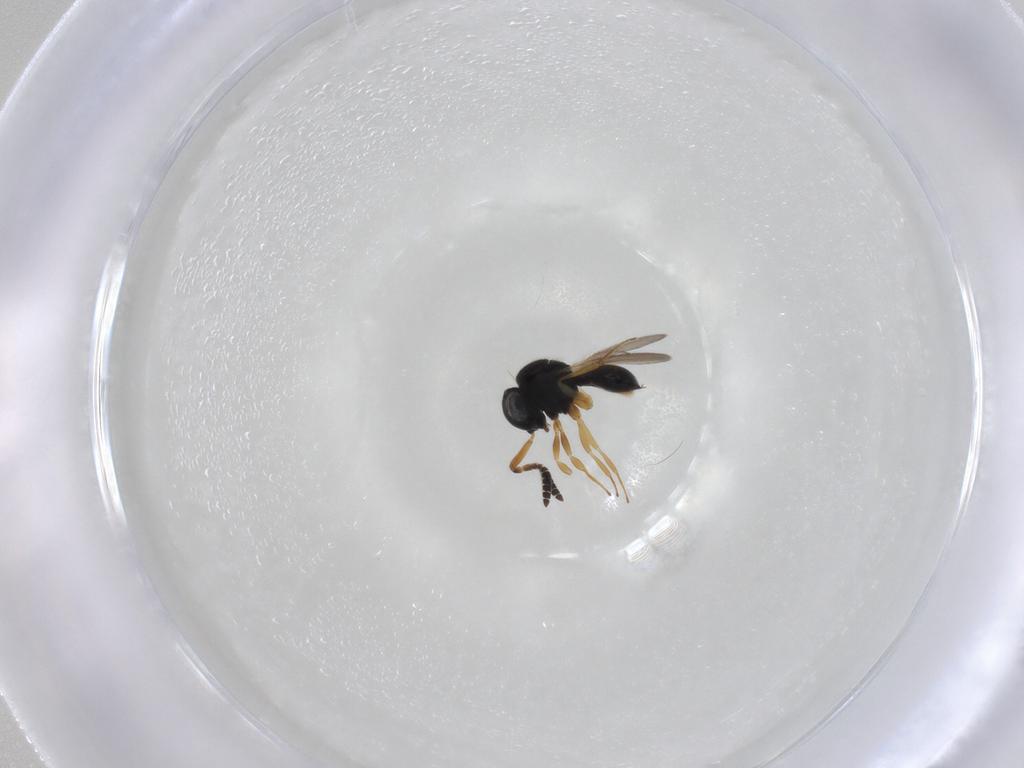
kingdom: Animalia
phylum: Arthropoda
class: Insecta
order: Hymenoptera
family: Scelionidae
